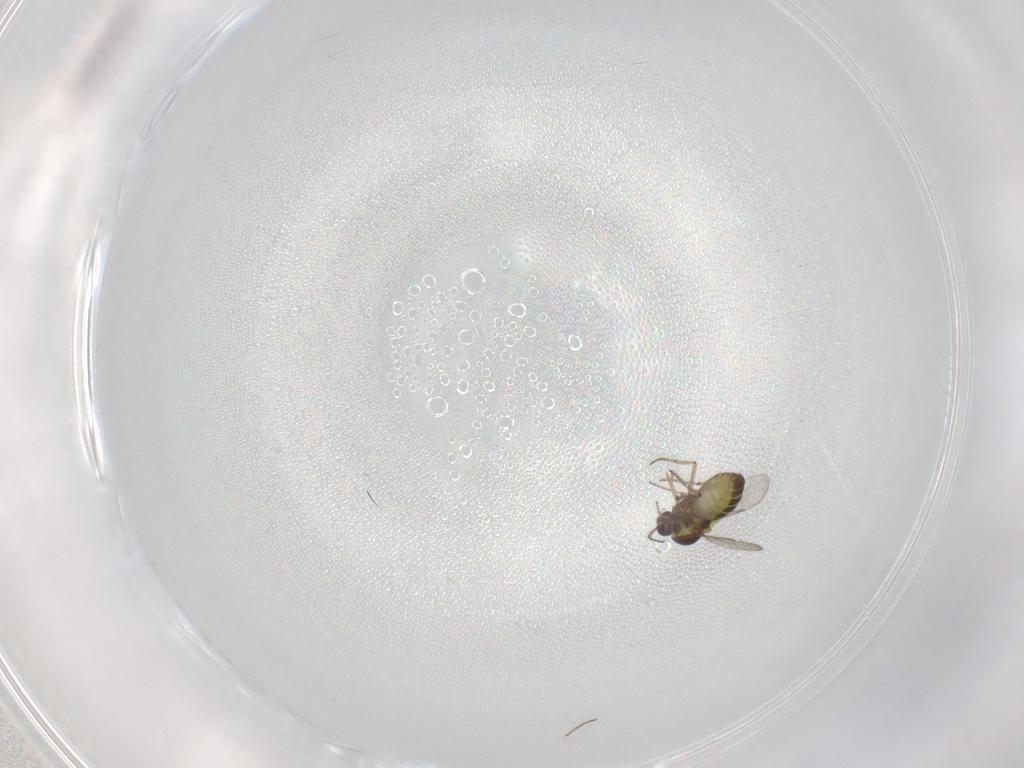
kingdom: Animalia
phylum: Arthropoda
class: Insecta
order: Diptera
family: Ceratopogonidae
